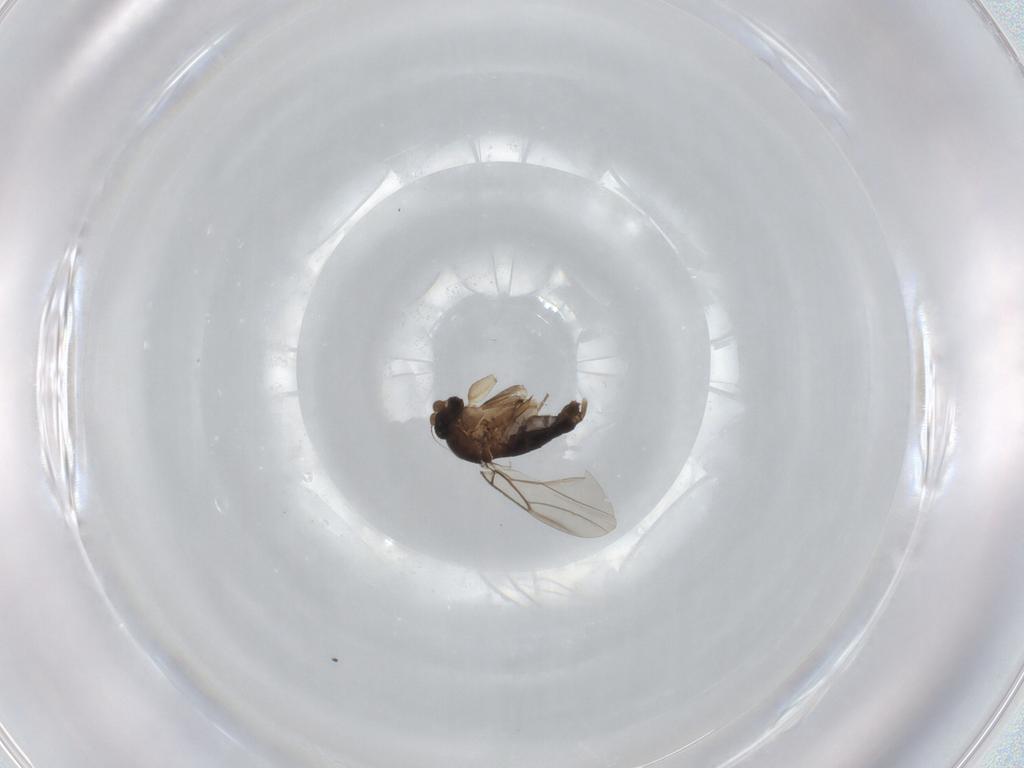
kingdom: Animalia
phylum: Arthropoda
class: Insecta
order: Diptera
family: Phoridae
